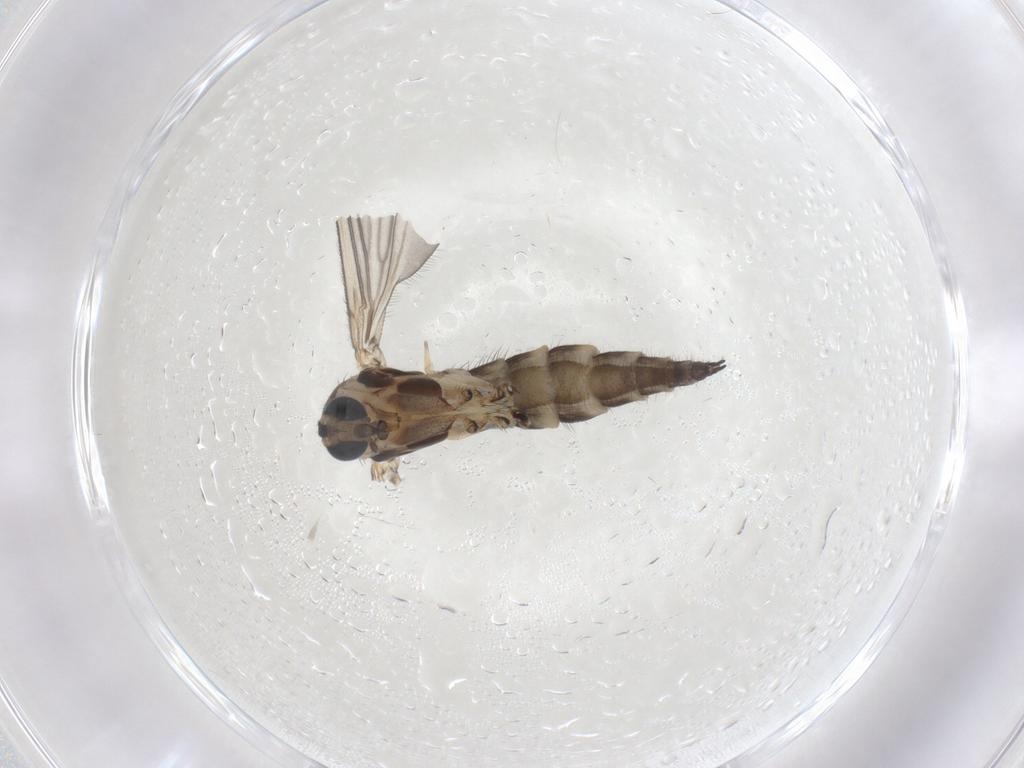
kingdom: Animalia
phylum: Arthropoda
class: Insecta
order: Diptera
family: Sciaridae
